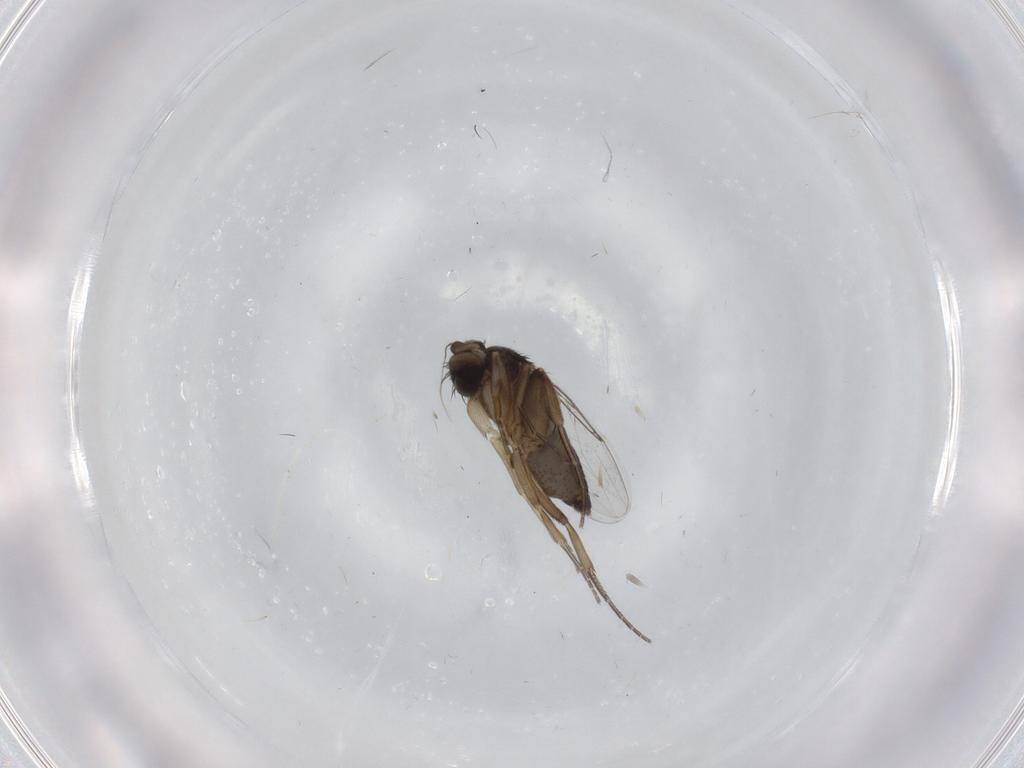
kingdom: Animalia
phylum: Arthropoda
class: Insecta
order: Diptera
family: Phoridae
